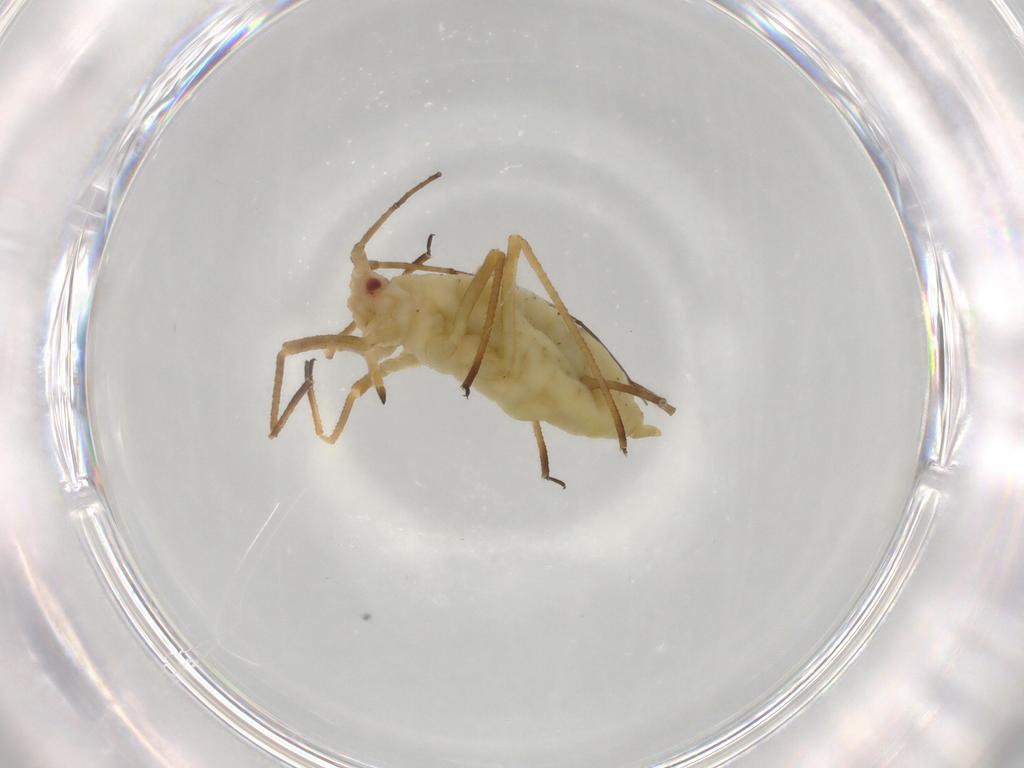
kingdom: Animalia
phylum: Arthropoda
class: Insecta
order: Hemiptera
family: Aphididae
